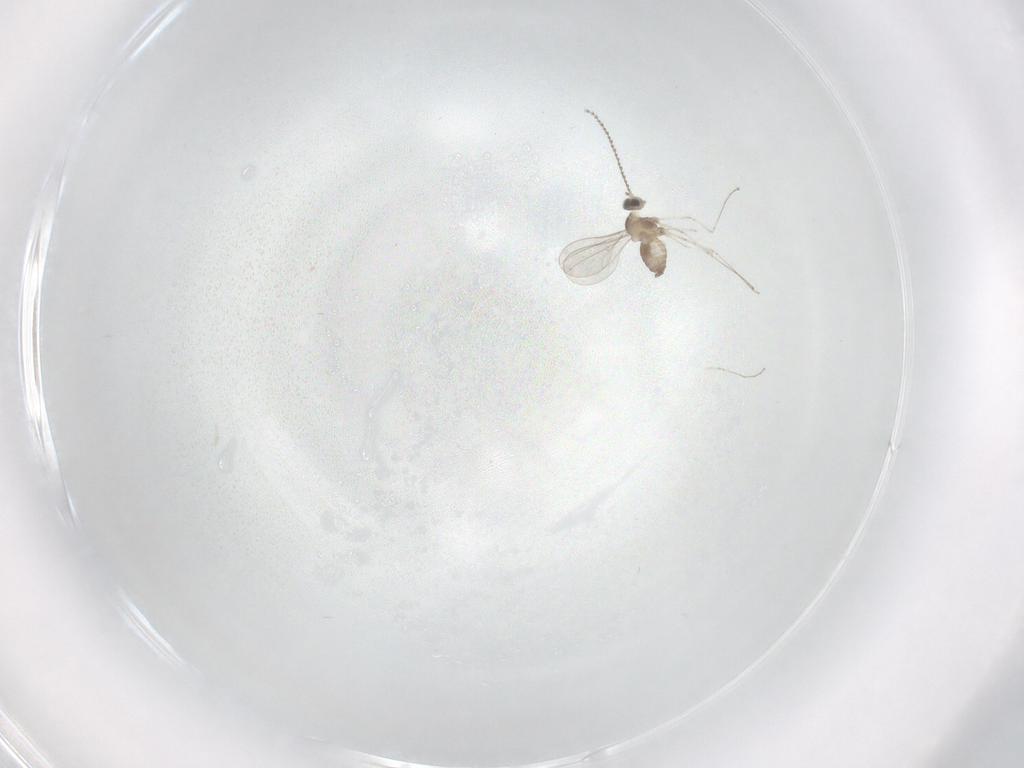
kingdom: Animalia
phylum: Arthropoda
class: Insecta
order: Diptera
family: Cecidomyiidae
